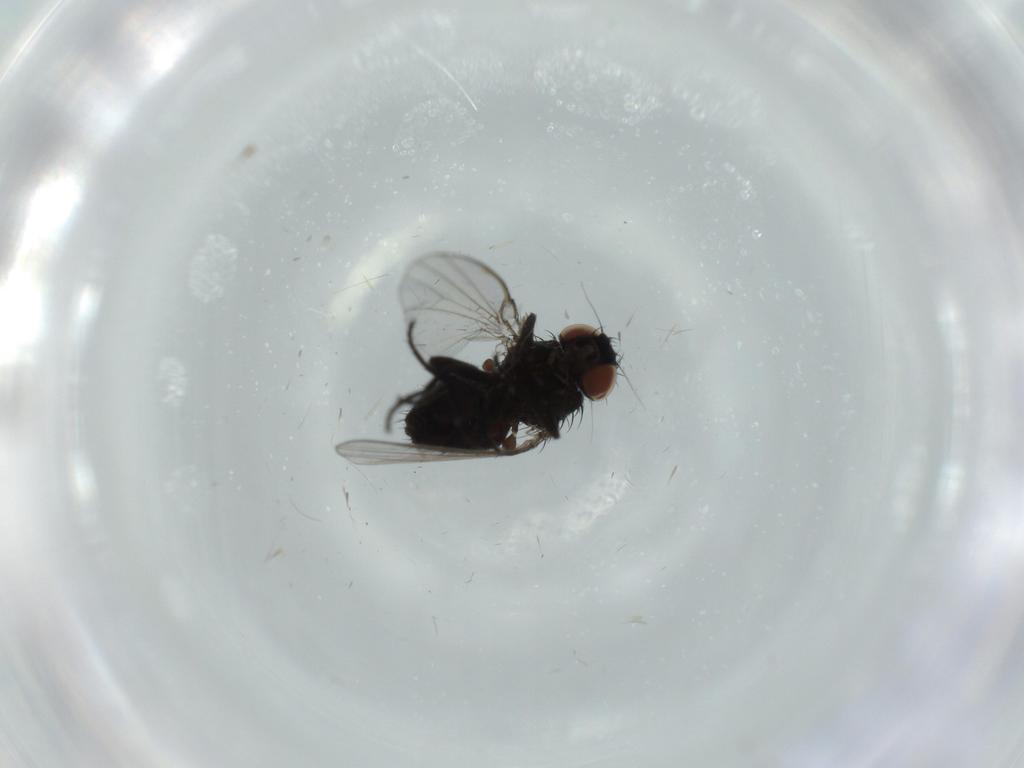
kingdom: Animalia
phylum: Arthropoda
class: Insecta
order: Diptera
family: Milichiidae
